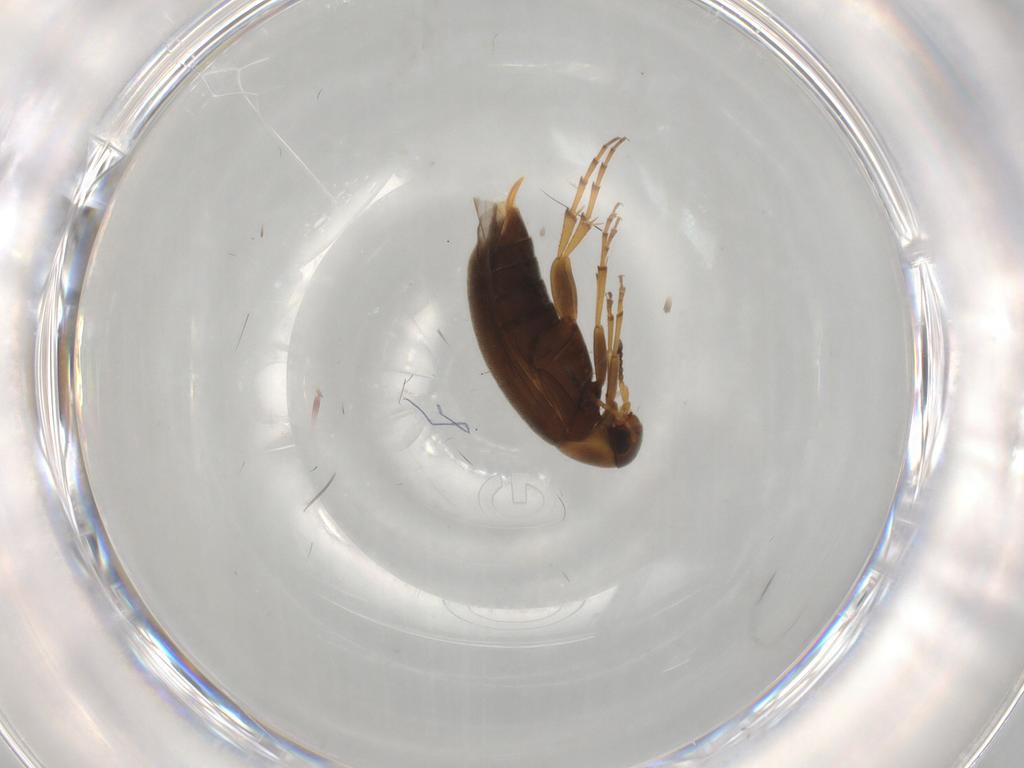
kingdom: Animalia
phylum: Arthropoda
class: Insecta
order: Coleoptera
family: Scraptiidae
